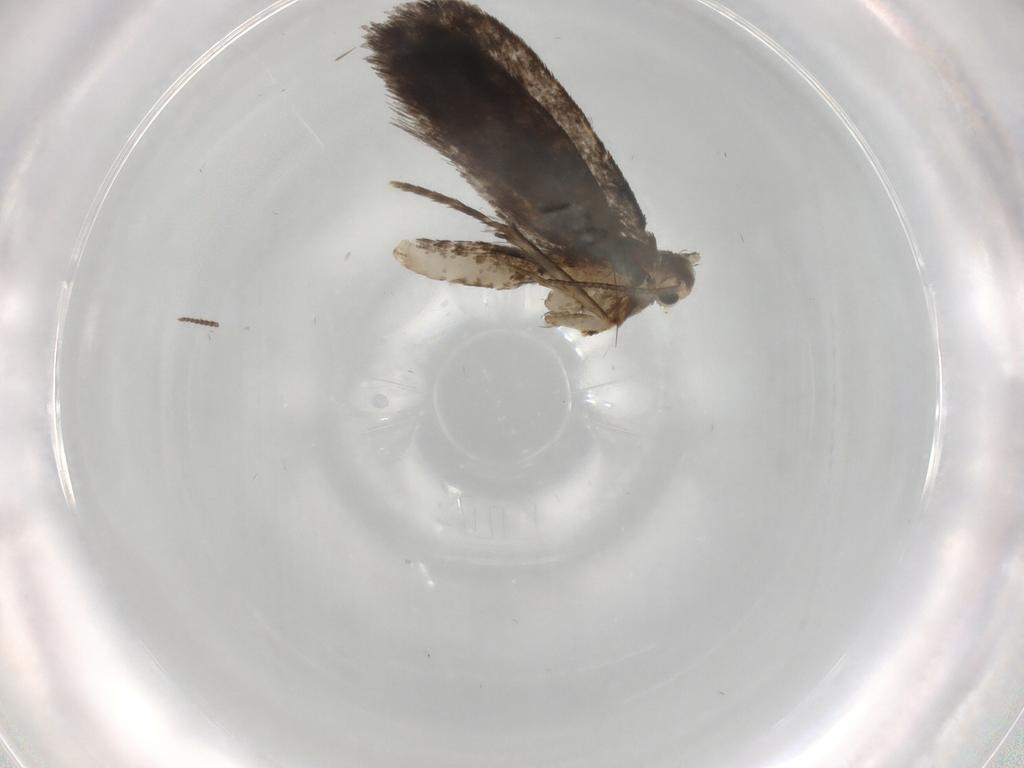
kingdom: Animalia
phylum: Arthropoda
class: Insecta
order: Lepidoptera
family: Psychidae
